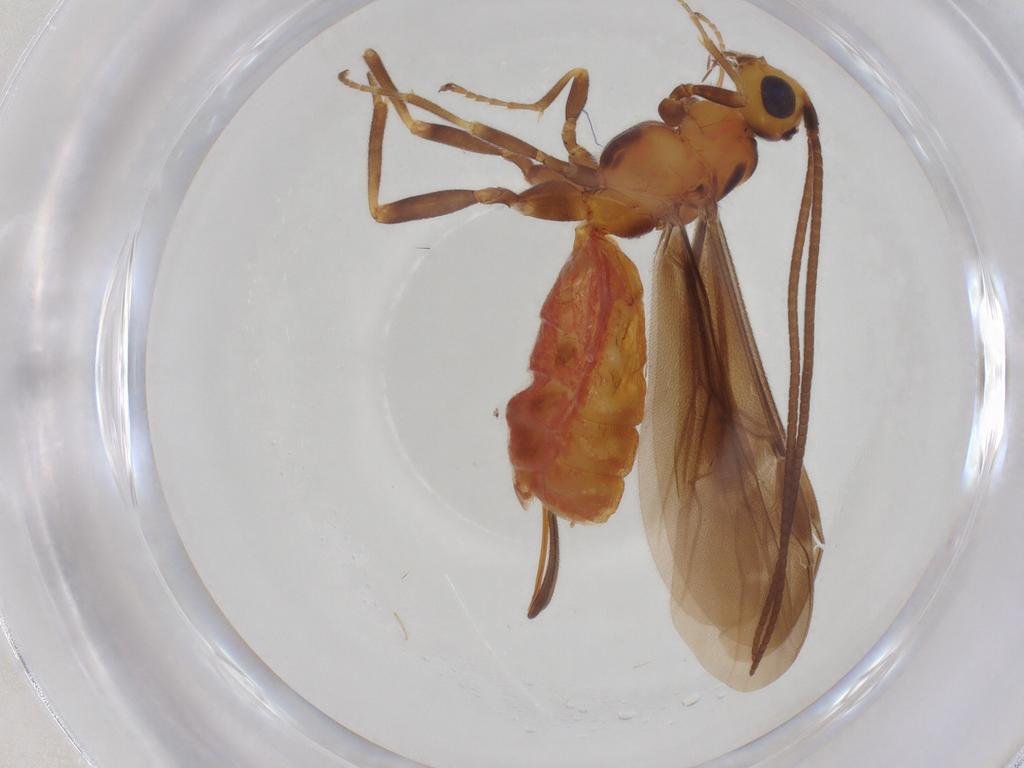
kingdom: Animalia
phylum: Arthropoda
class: Insecta
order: Hymenoptera
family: Braconidae
